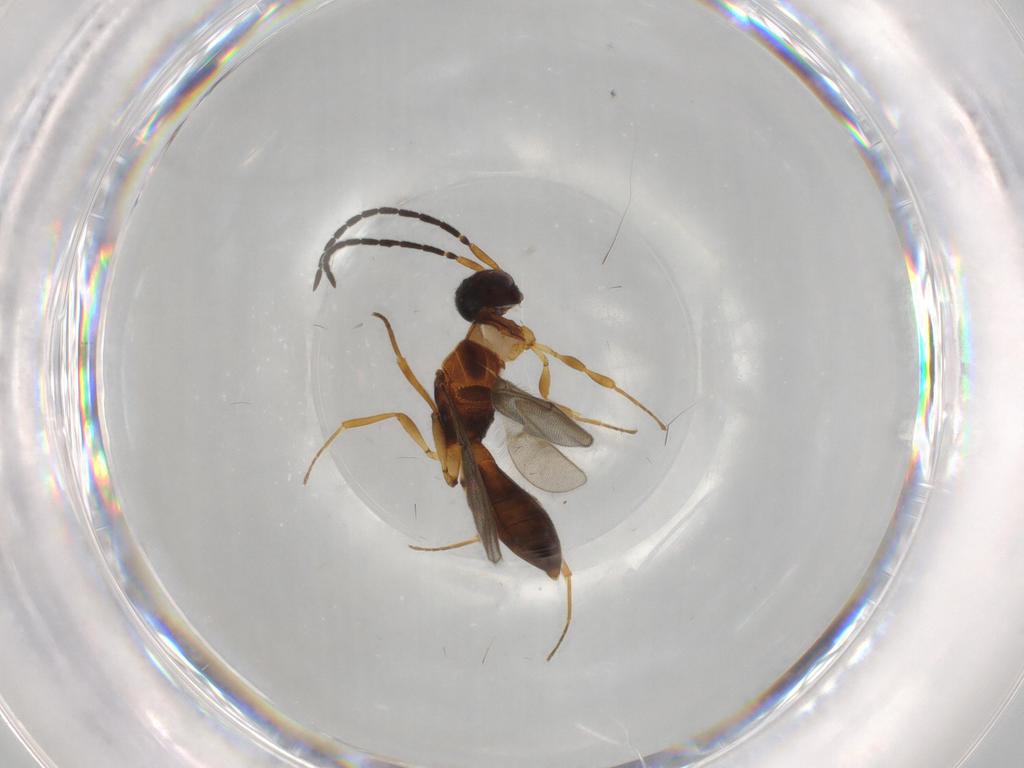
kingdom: Animalia
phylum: Arthropoda
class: Insecta
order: Hymenoptera
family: Scelionidae
